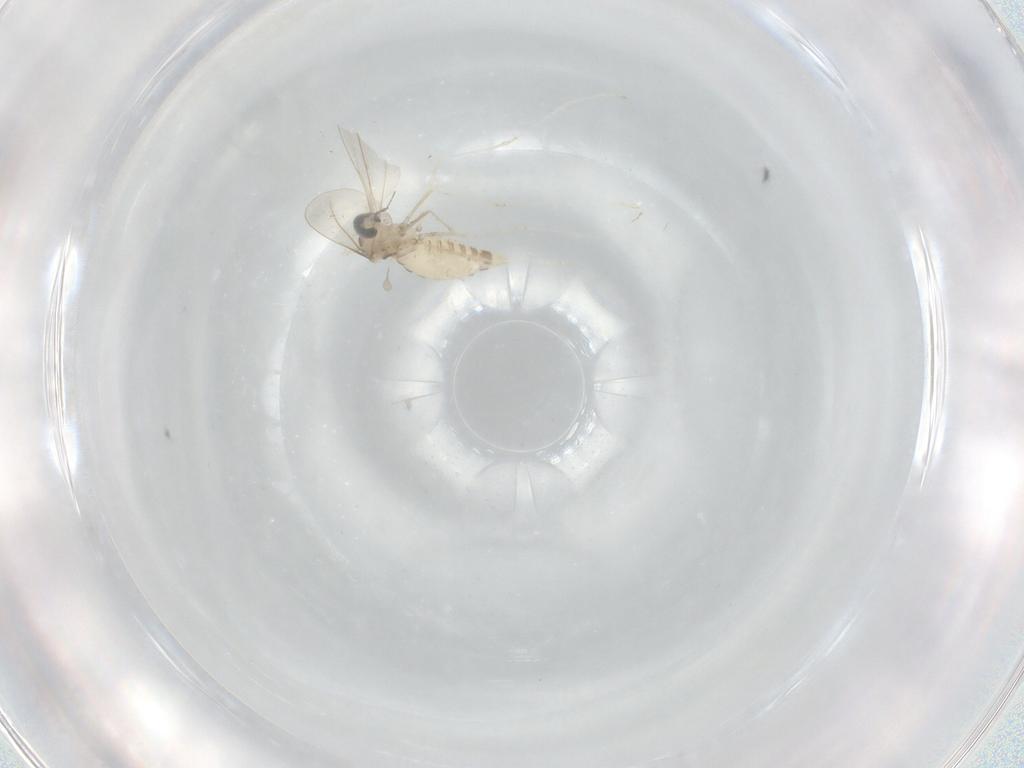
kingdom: Animalia
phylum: Arthropoda
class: Insecta
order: Diptera
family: Cecidomyiidae
